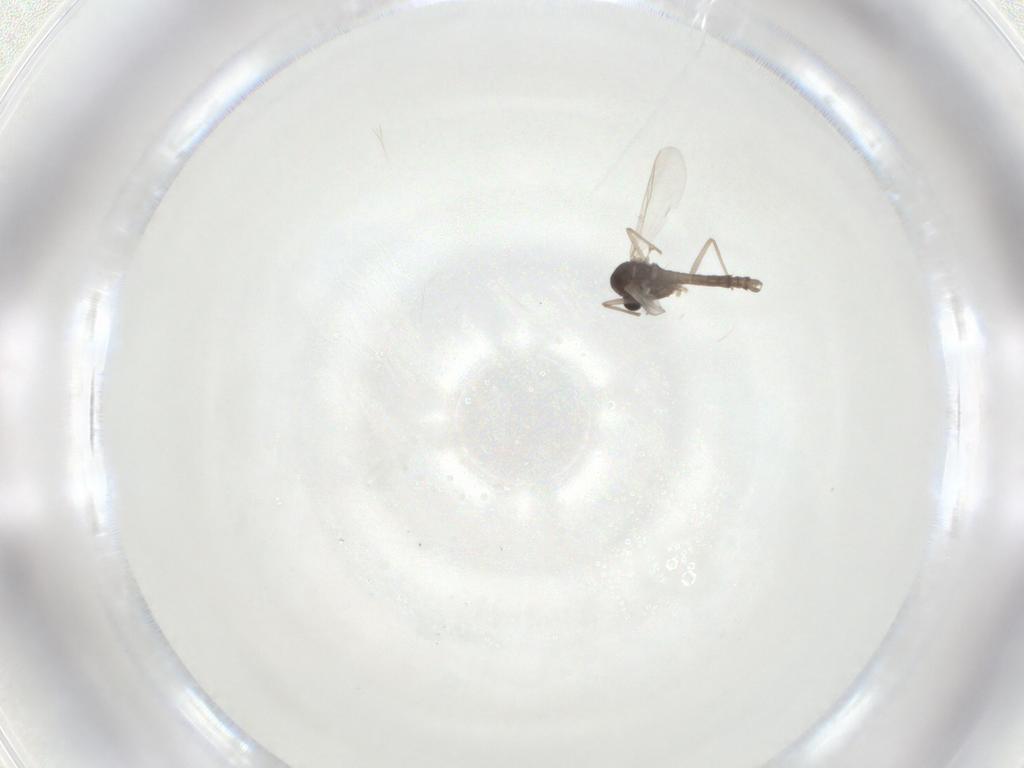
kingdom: Animalia
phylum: Arthropoda
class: Insecta
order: Diptera
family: Chironomidae
